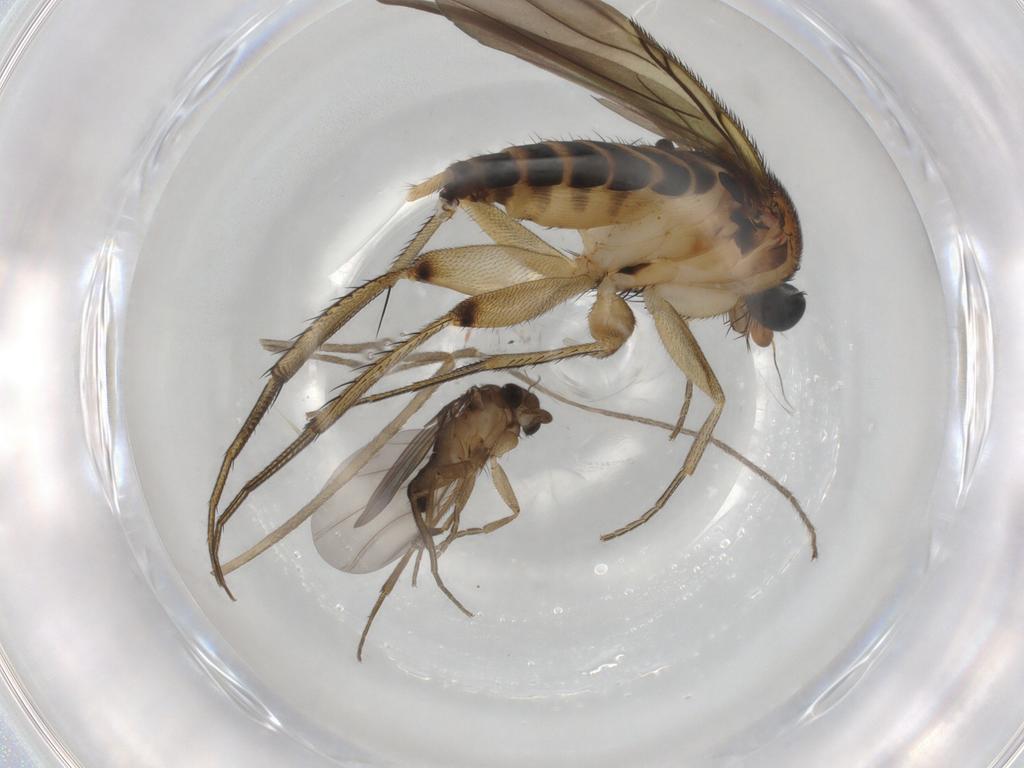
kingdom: Animalia
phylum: Arthropoda
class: Insecta
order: Diptera
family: Limoniidae
